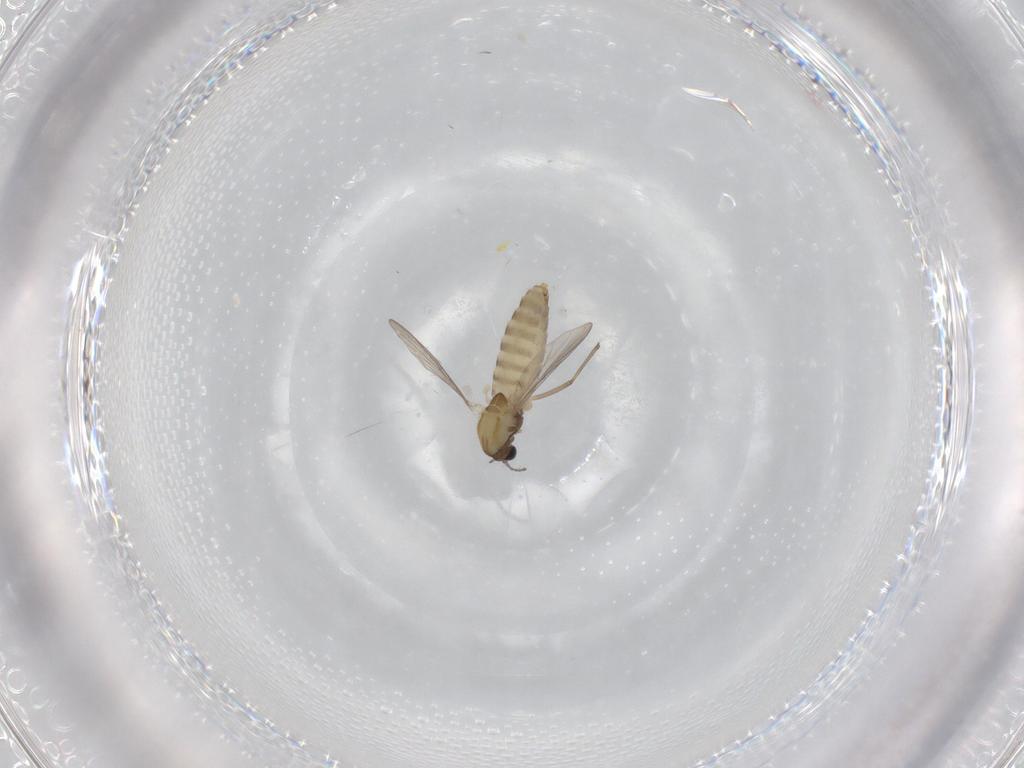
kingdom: Animalia
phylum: Arthropoda
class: Insecta
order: Diptera
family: Chironomidae
